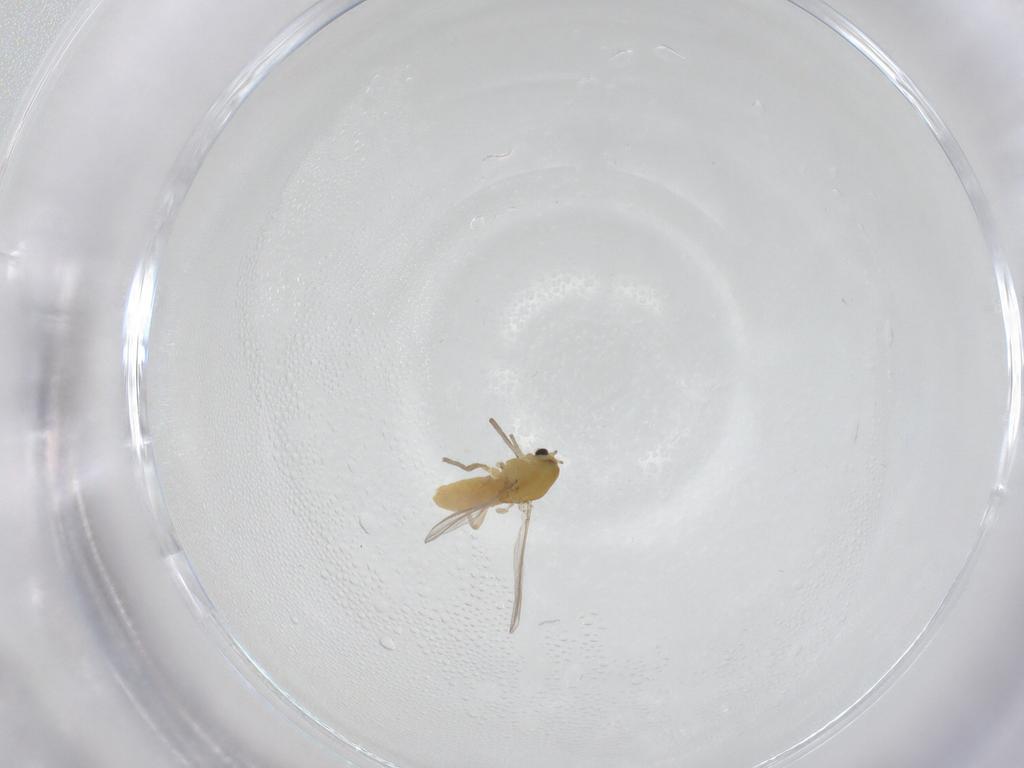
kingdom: Animalia
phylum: Arthropoda
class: Insecta
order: Diptera
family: Chironomidae
